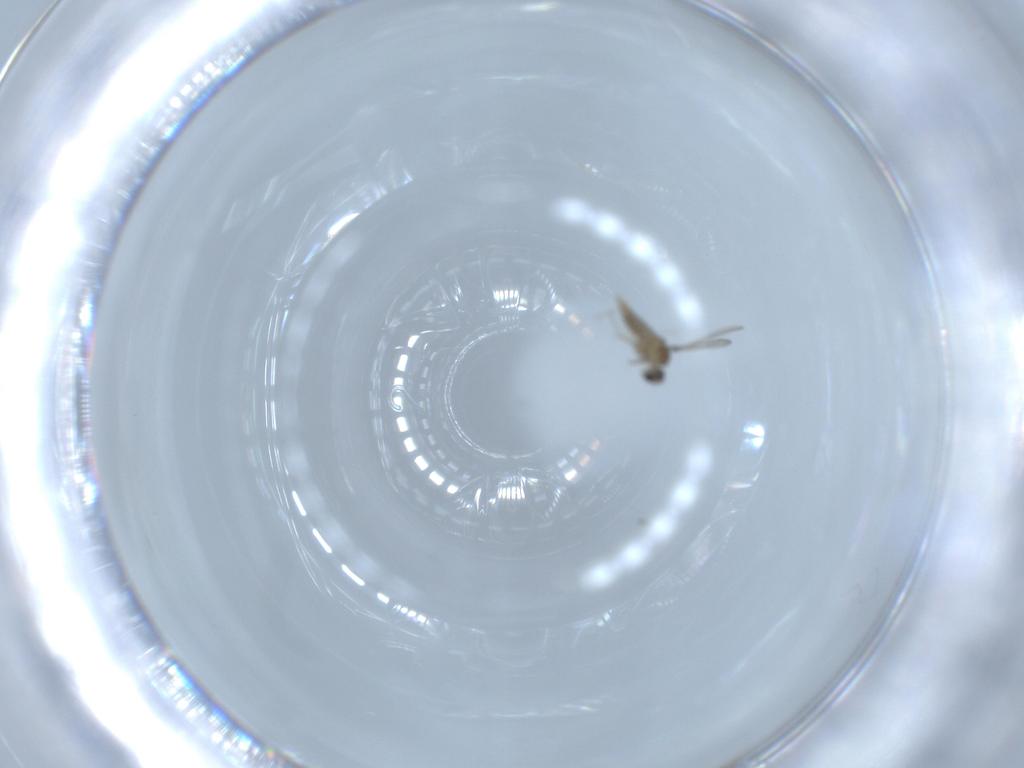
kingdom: Animalia
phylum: Arthropoda
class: Insecta
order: Diptera
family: Cecidomyiidae
